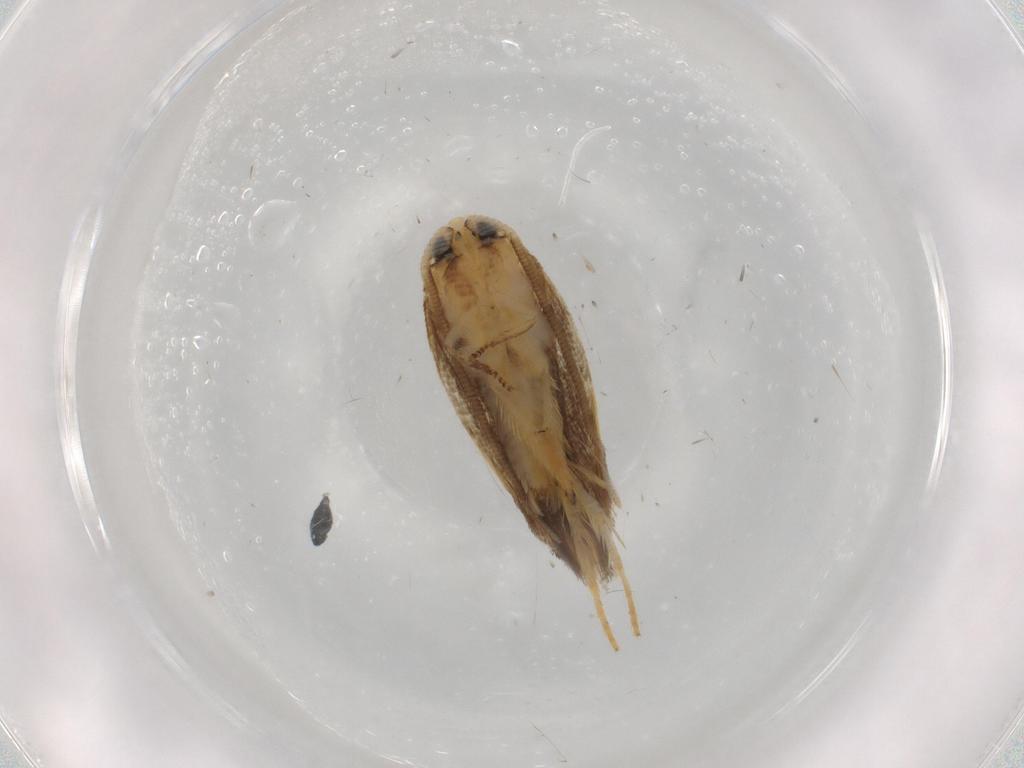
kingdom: Animalia
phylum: Arthropoda
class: Insecta
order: Lepidoptera
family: Opostegidae
